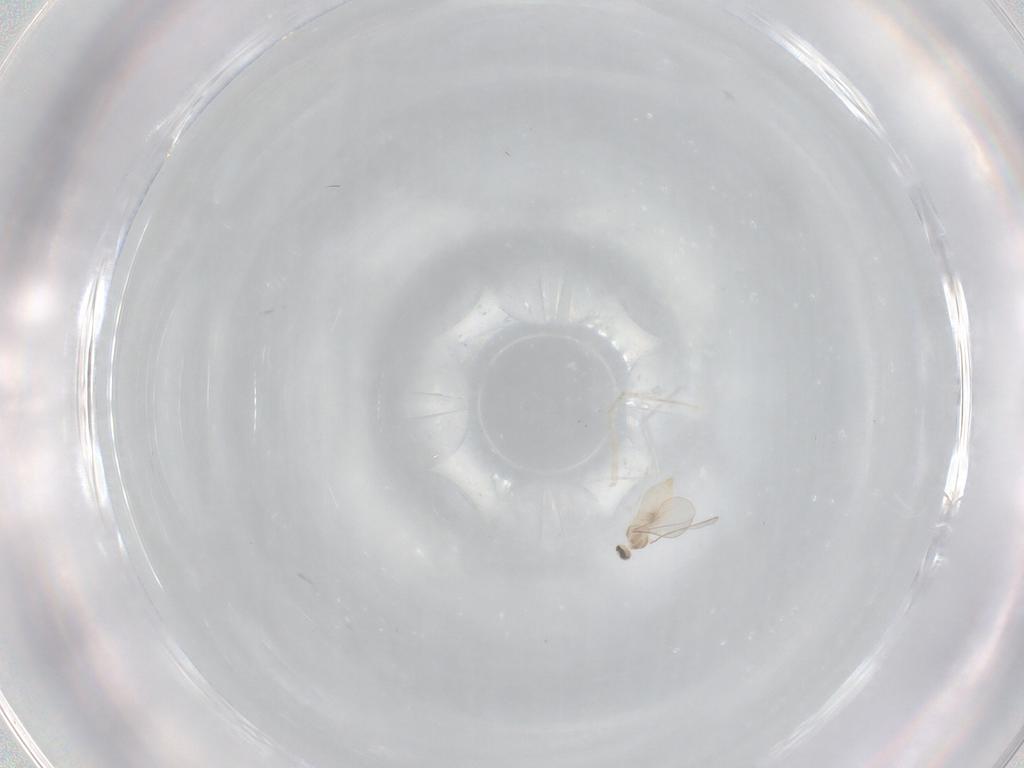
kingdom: Animalia
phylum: Arthropoda
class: Insecta
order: Diptera
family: Cecidomyiidae
